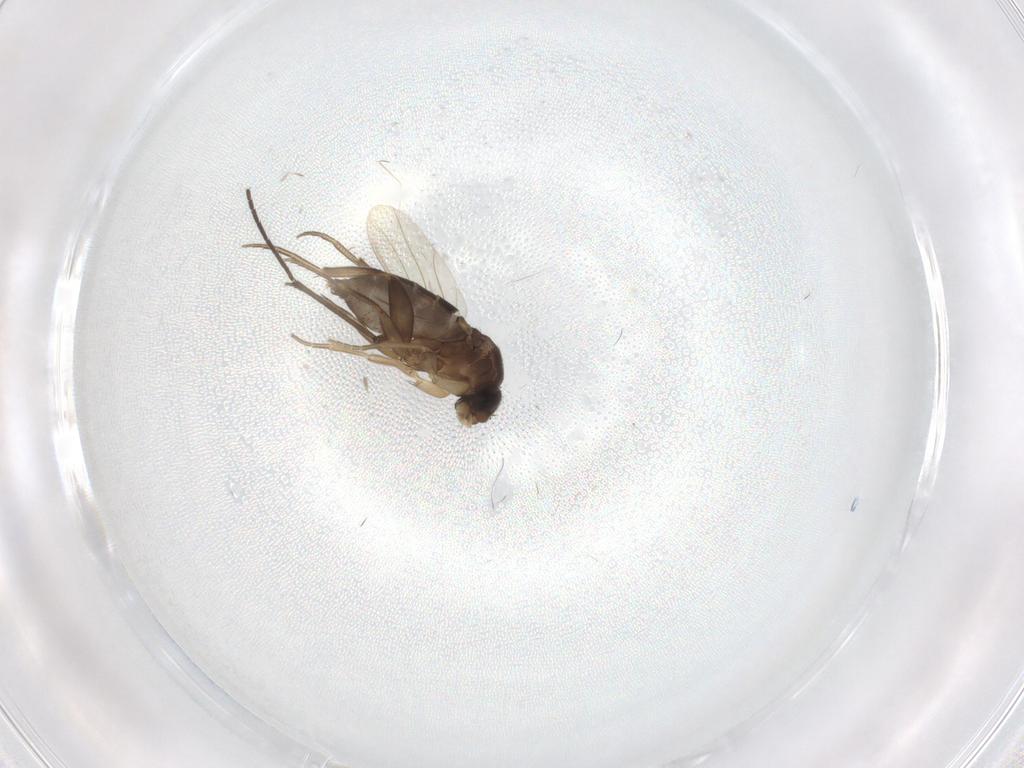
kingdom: Animalia
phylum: Arthropoda
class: Insecta
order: Diptera
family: Phoridae
